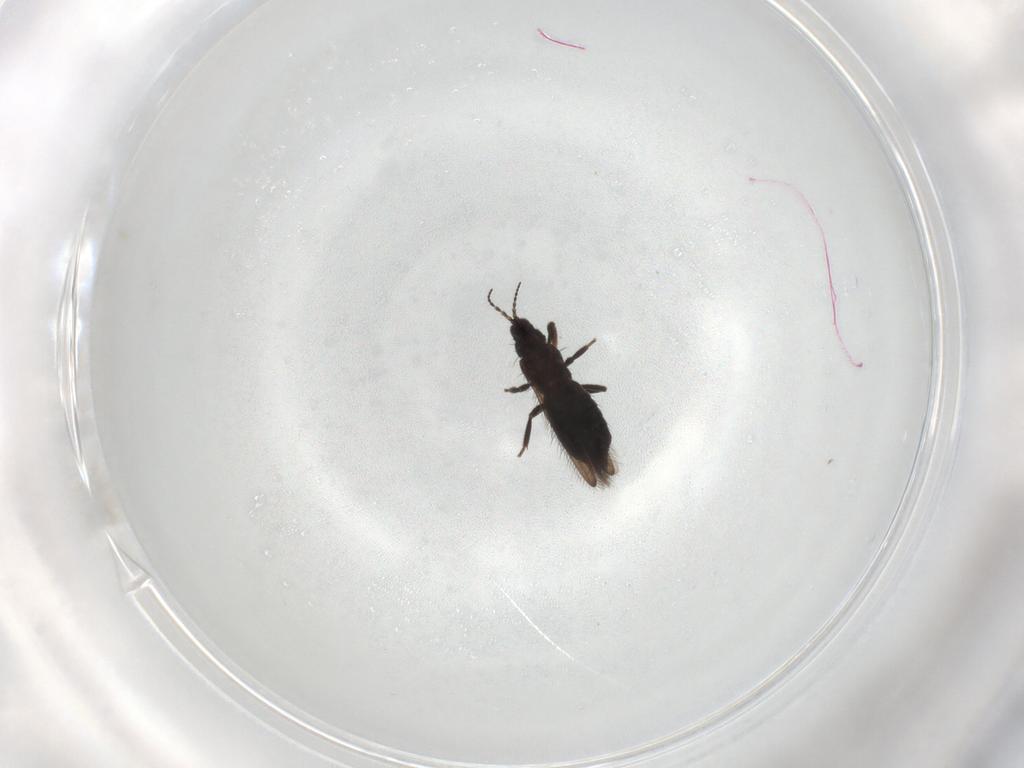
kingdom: Animalia
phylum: Arthropoda
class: Insecta
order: Thysanoptera
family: Melanthripidae
